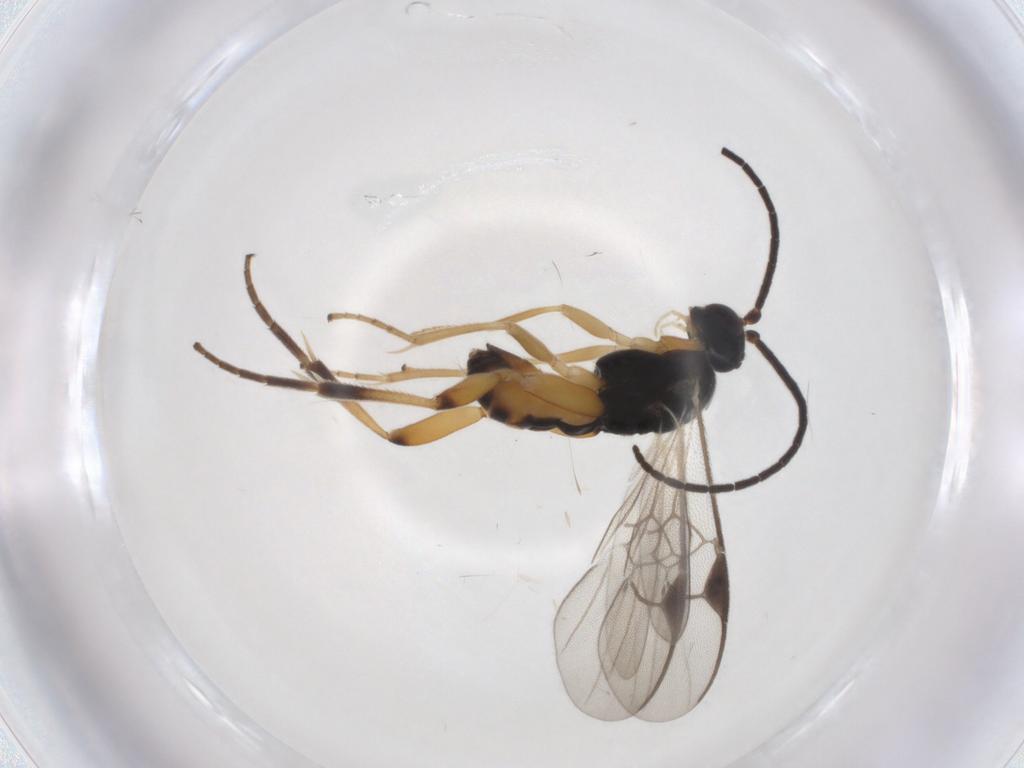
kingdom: Animalia
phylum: Arthropoda
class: Insecta
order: Hymenoptera
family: Braconidae
